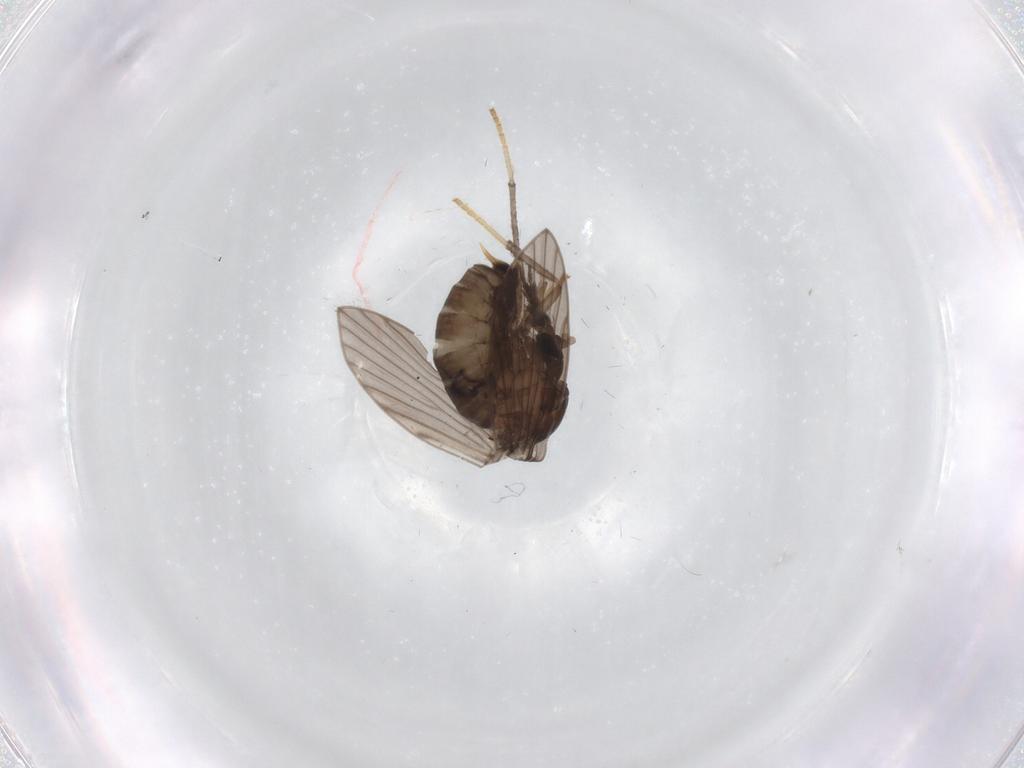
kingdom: Animalia
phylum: Arthropoda
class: Insecta
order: Diptera
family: Psychodidae
